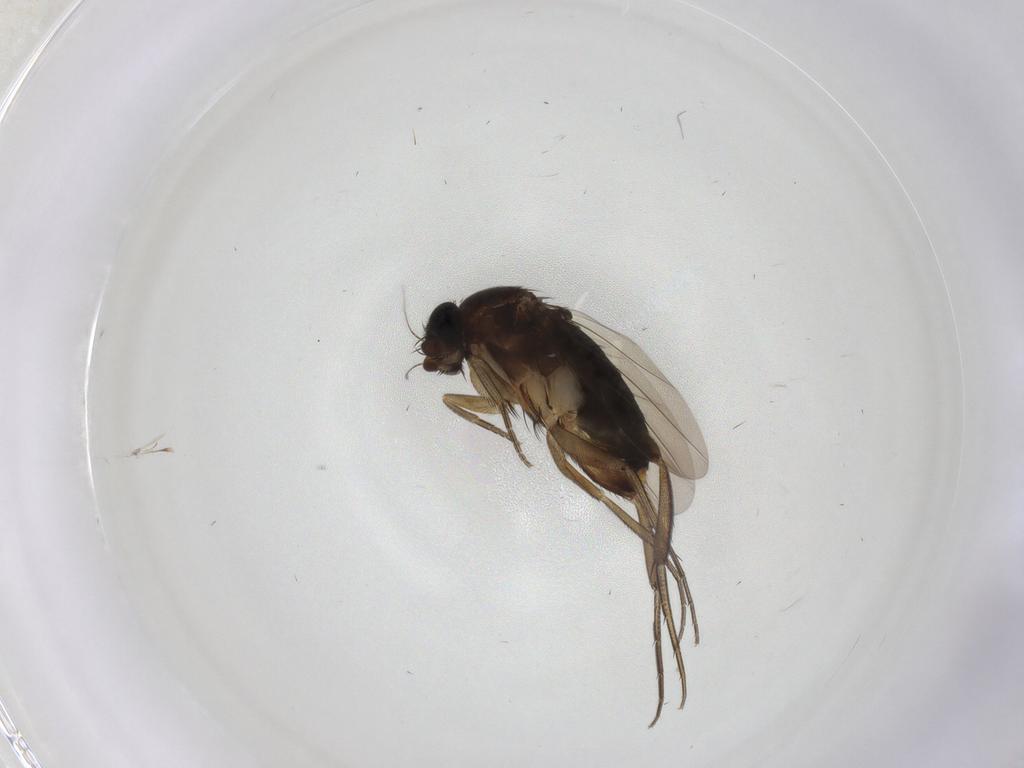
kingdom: Animalia
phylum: Arthropoda
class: Insecta
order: Diptera
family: Phoridae
